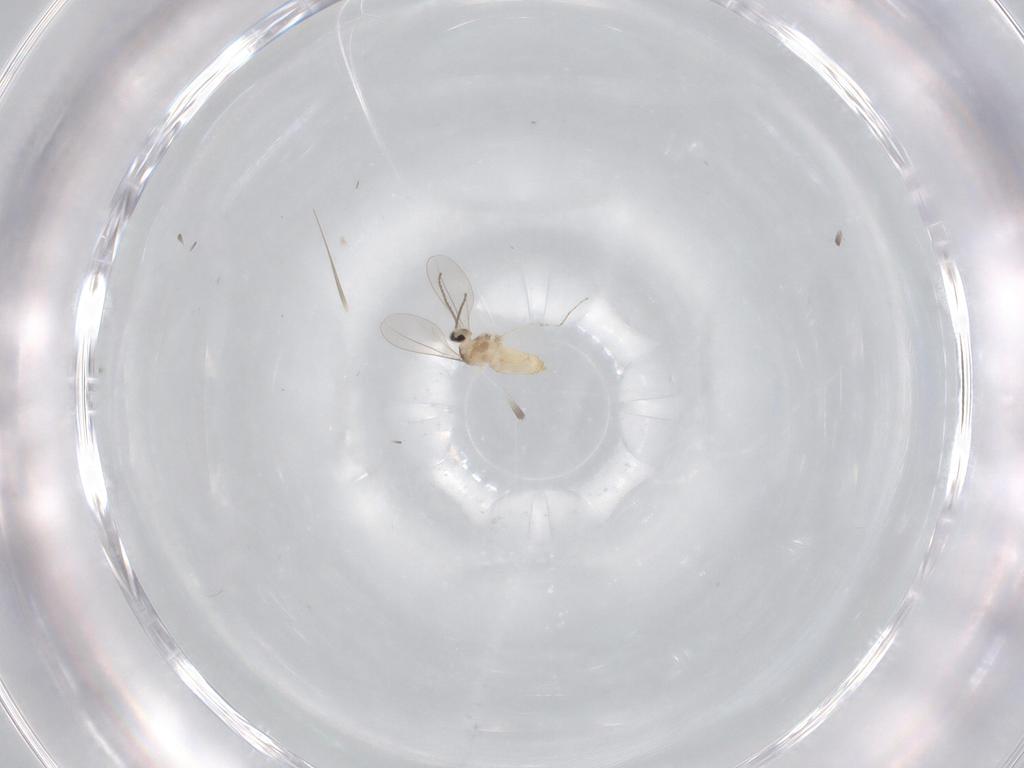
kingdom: Animalia
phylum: Arthropoda
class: Insecta
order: Diptera
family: Cecidomyiidae
